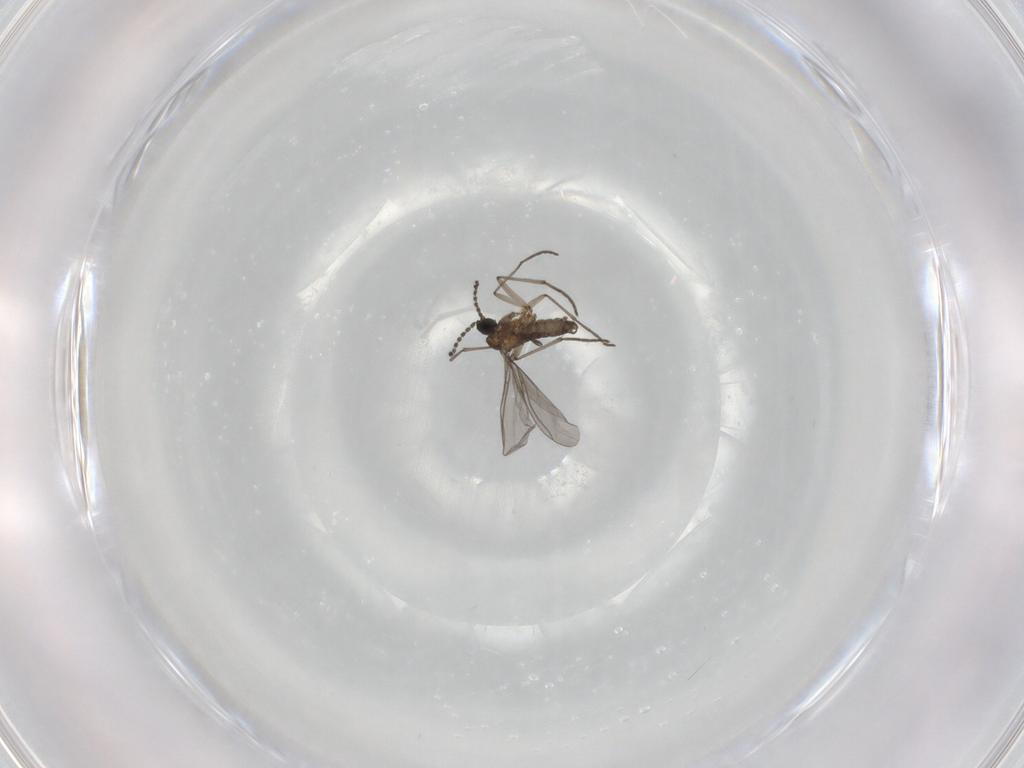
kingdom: Animalia
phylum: Arthropoda
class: Insecta
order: Diptera
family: Sciaridae
